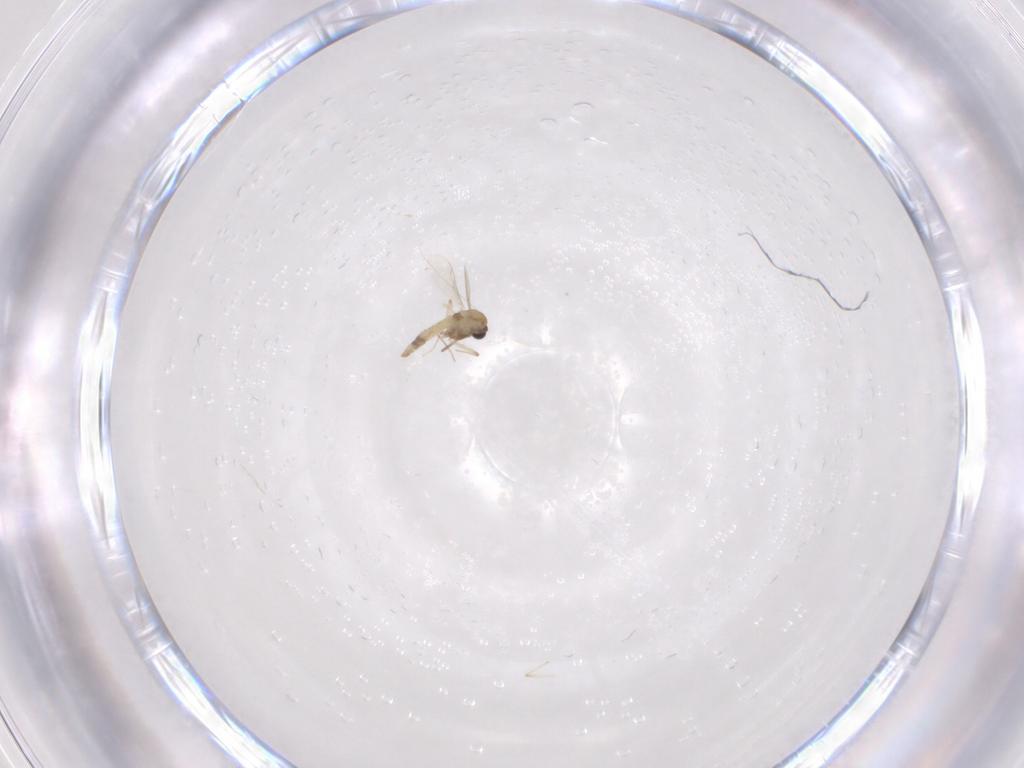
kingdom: Animalia
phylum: Arthropoda
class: Insecta
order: Diptera
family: Chironomidae
